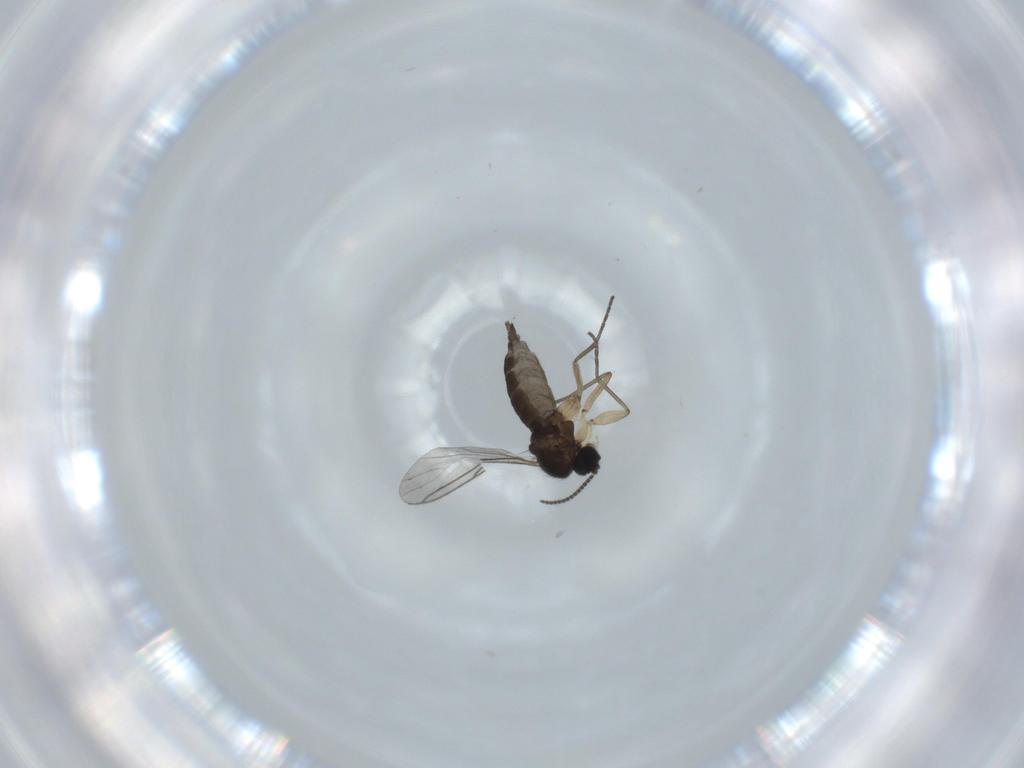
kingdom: Animalia
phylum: Arthropoda
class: Insecta
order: Diptera
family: Sciaridae
